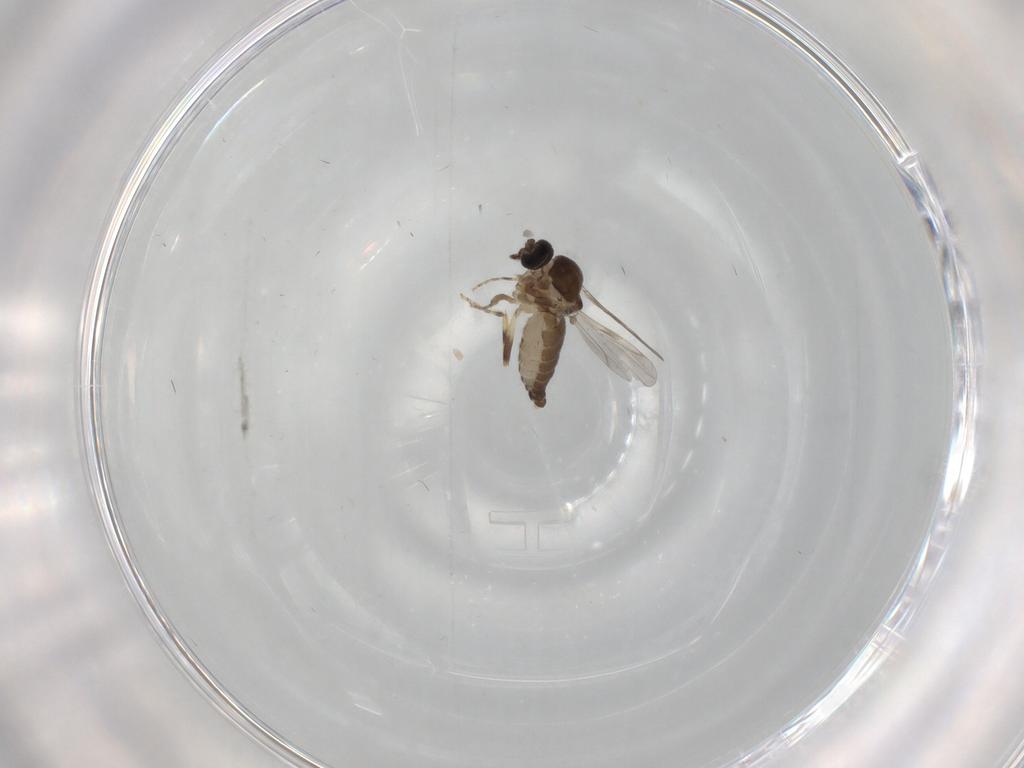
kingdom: Animalia
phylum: Arthropoda
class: Insecta
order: Diptera
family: Ceratopogonidae
